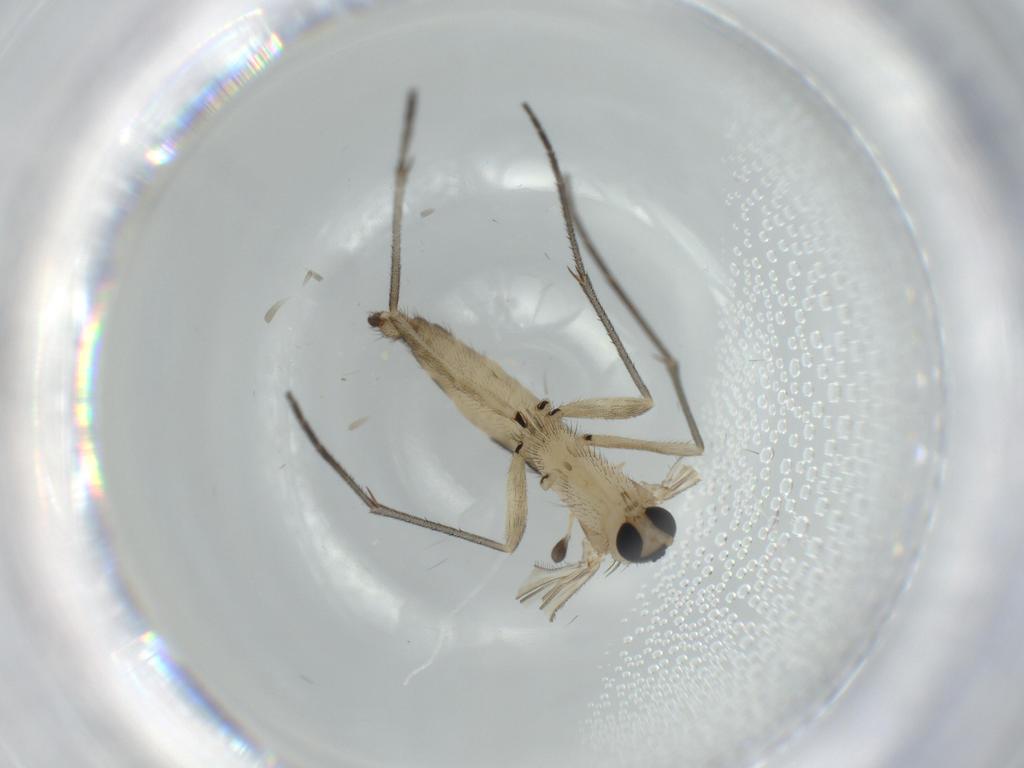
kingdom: Animalia
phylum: Arthropoda
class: Insecta
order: Diptera
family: Sciaridae
